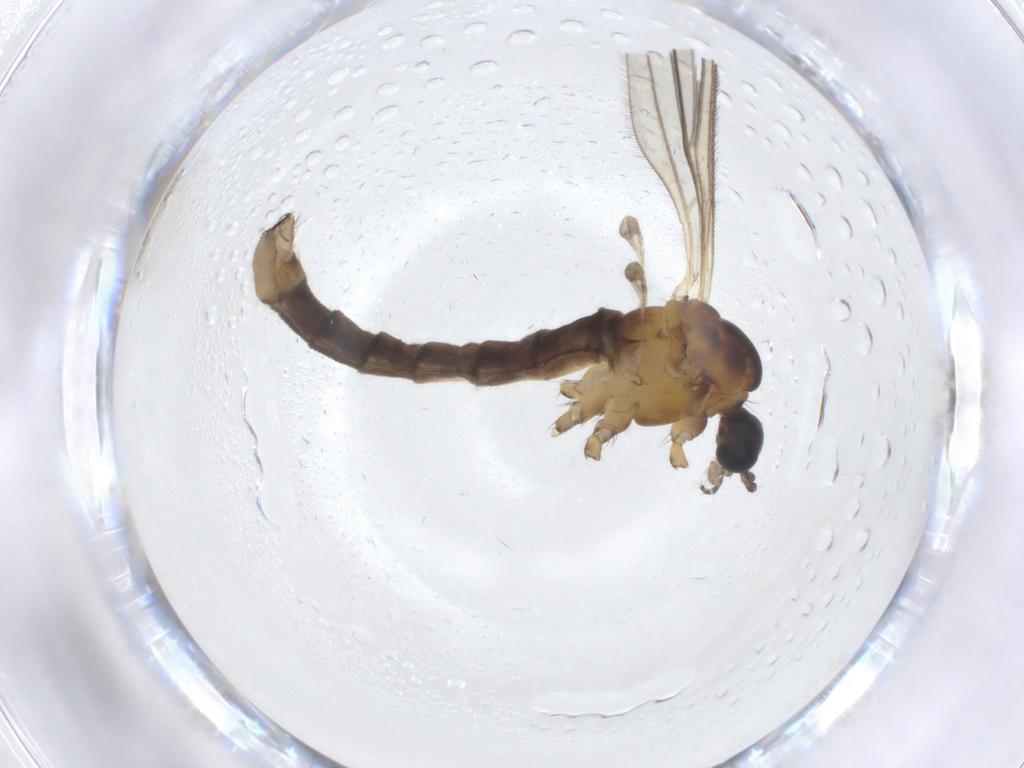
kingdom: Animalia
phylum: Arthropoda
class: Insecta
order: Diptera
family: Chironomidae
